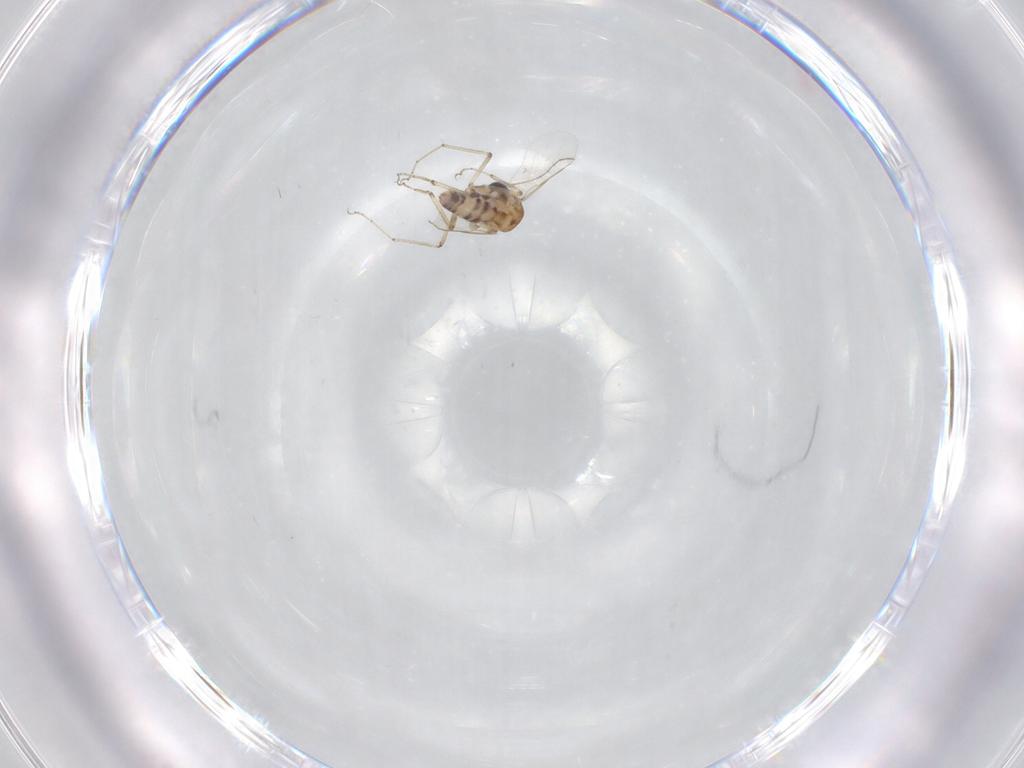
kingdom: Animalia
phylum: Arthropoda
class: Insecta
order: Diptera
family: Ceratopogonidae
